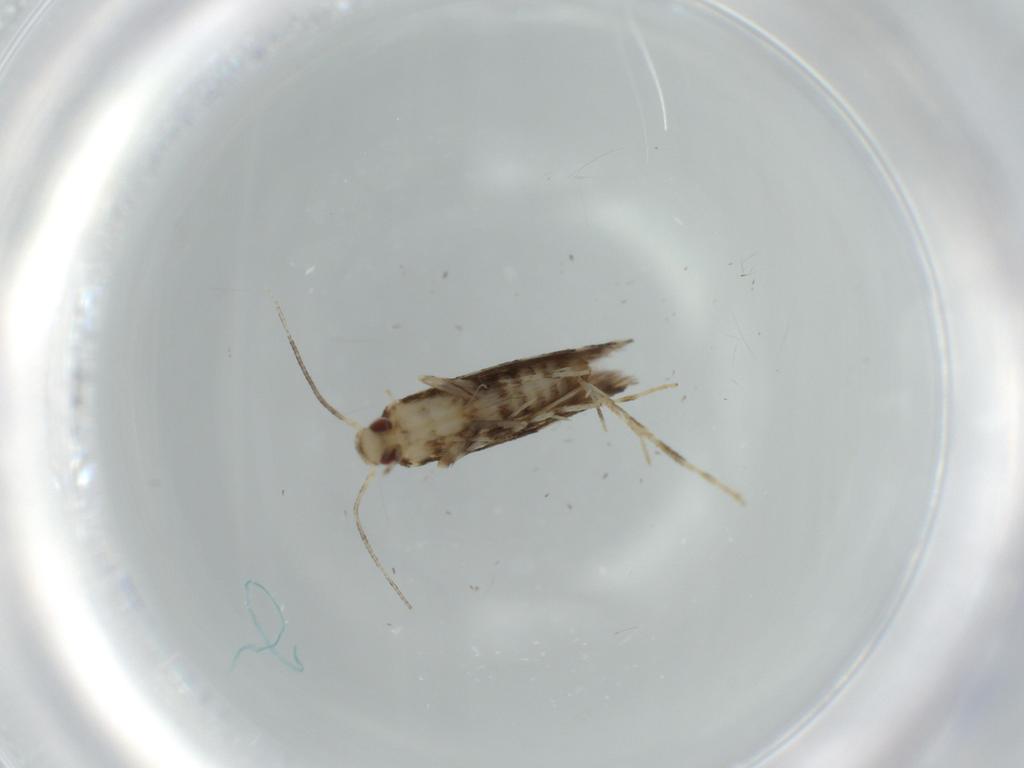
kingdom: Animalia
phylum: Arthropoda
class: Insecta
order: Lepidoptera
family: Gracillariidae
